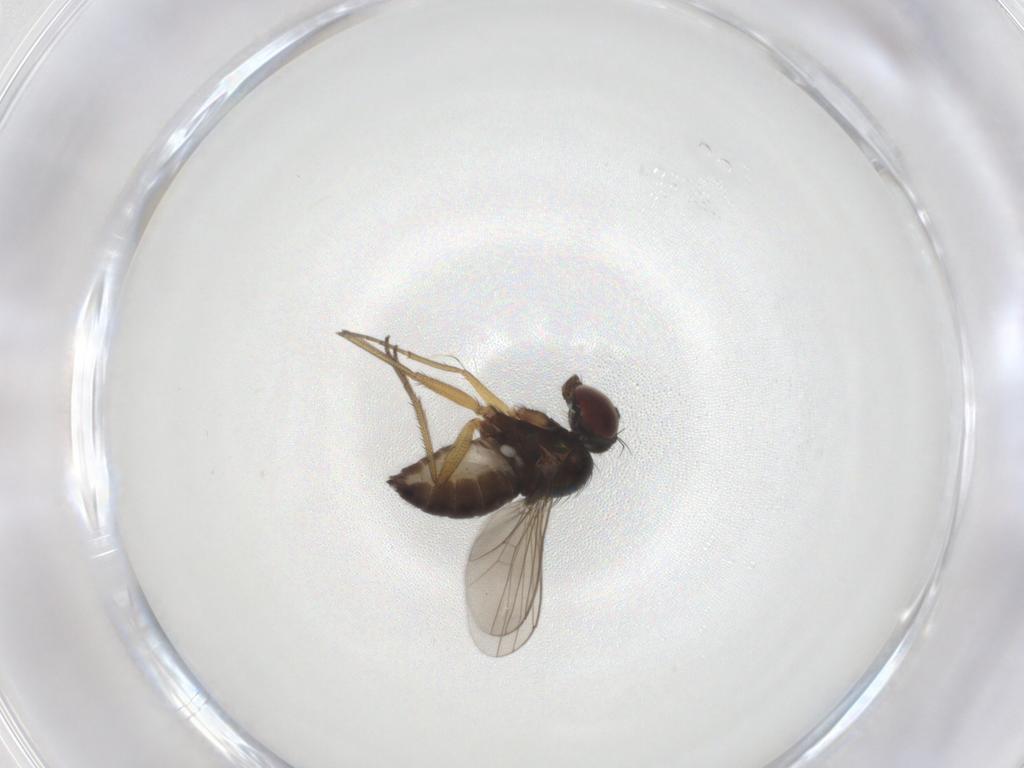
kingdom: Animalia
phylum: Arthropoda
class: Insecta
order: Diptera
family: Dolichopodidae
